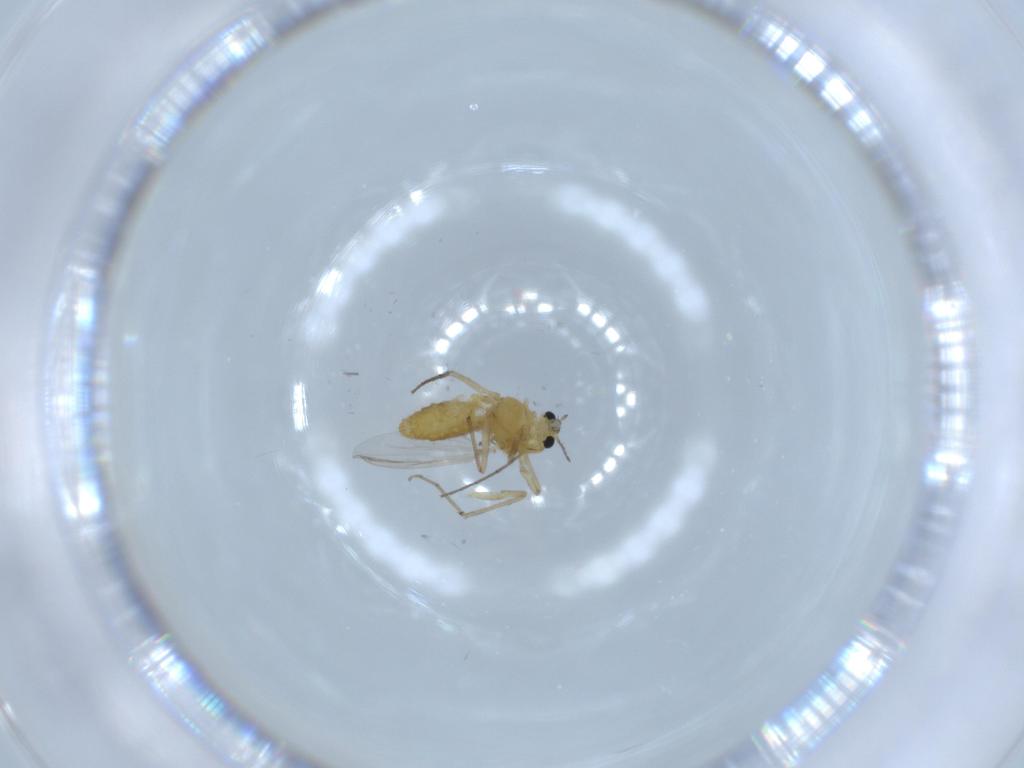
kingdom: Animalia
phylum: Arthropoda
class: Insecta
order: Diptera
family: Chironomidae
